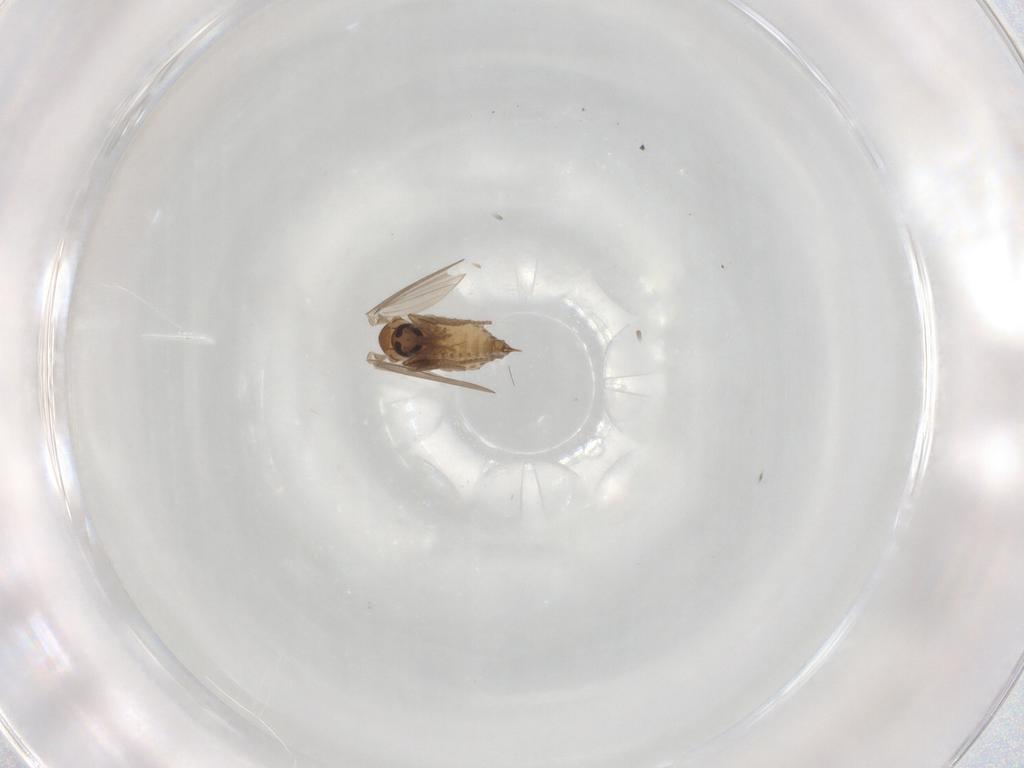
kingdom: Animalia
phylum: Arthropoda
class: Insecta
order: Diptera
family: Psychodidae
